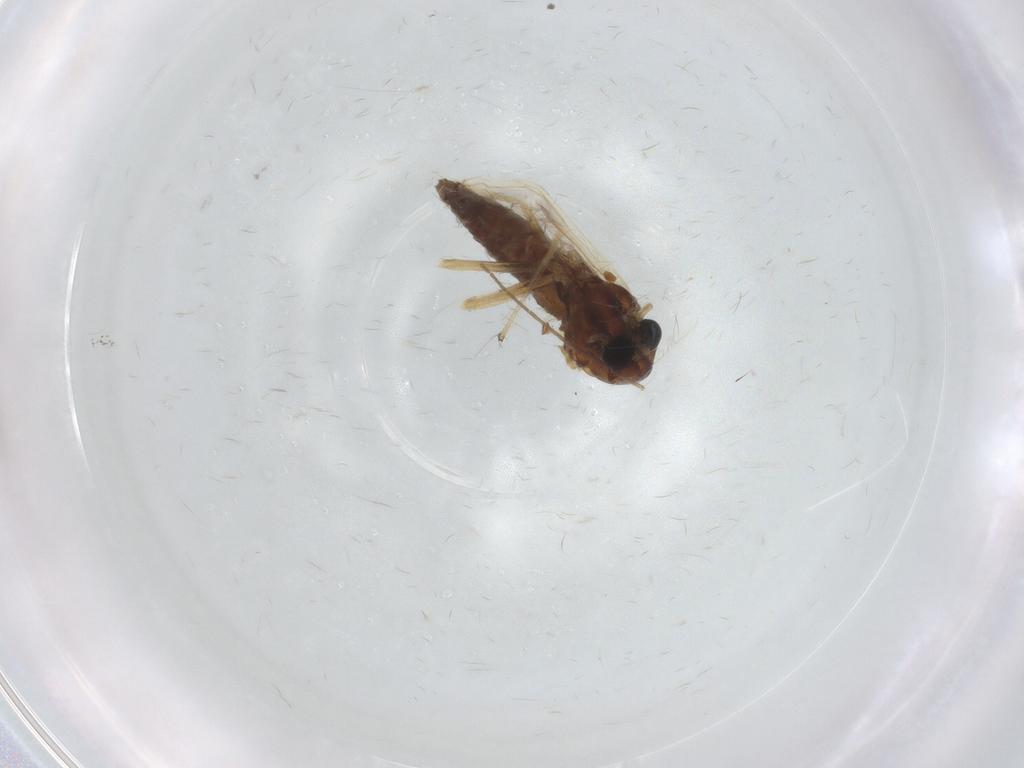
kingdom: Animalia
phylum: Arthropoda
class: Insecta
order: Diptera
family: Chironomidae
